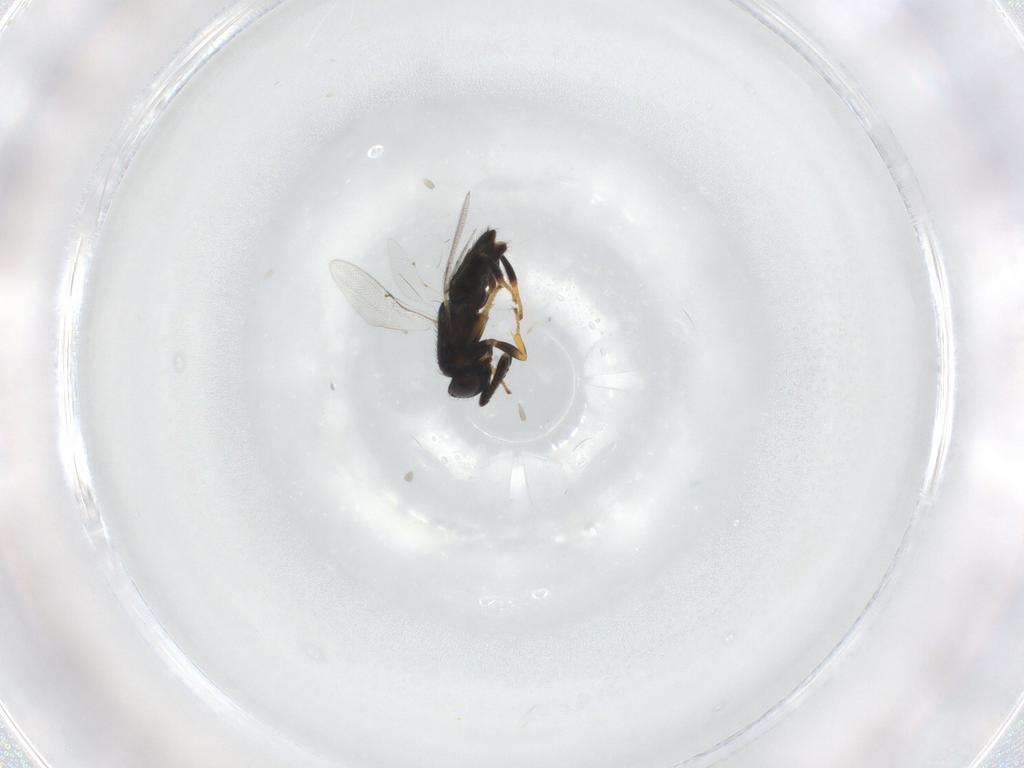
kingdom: Animalia
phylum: Arthropoda
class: Insecta
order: Hymenoptera
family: Encyrtidae
